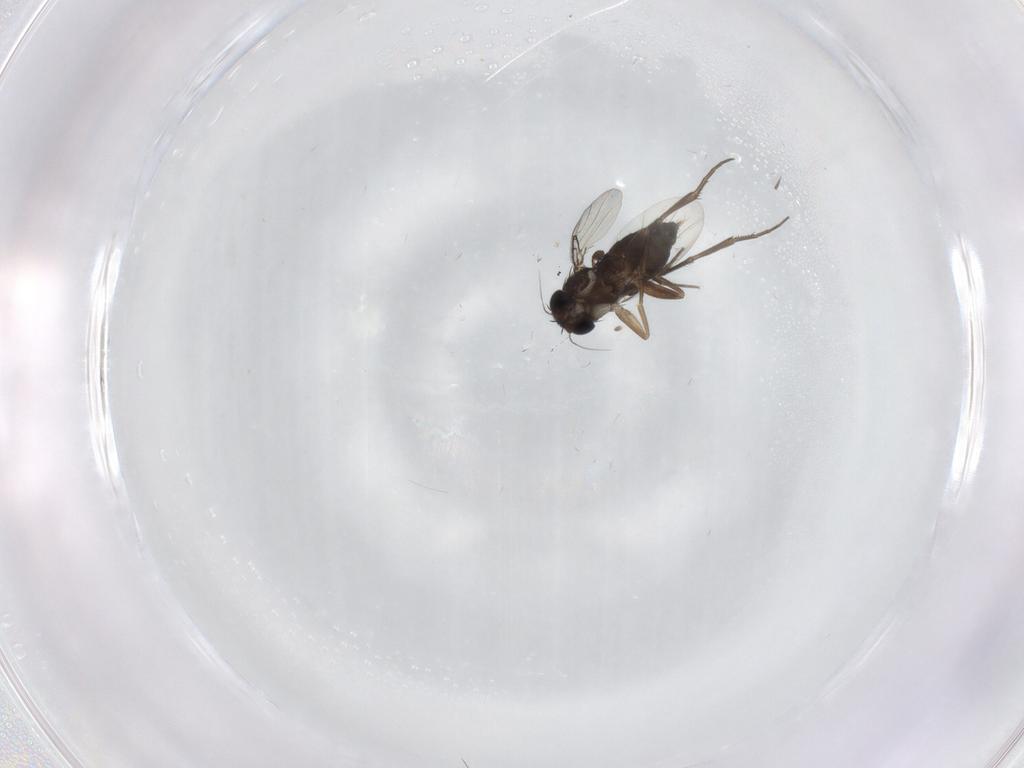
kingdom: Animalia
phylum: Arthropoda
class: Insecta
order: Diptera
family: Phoridae
